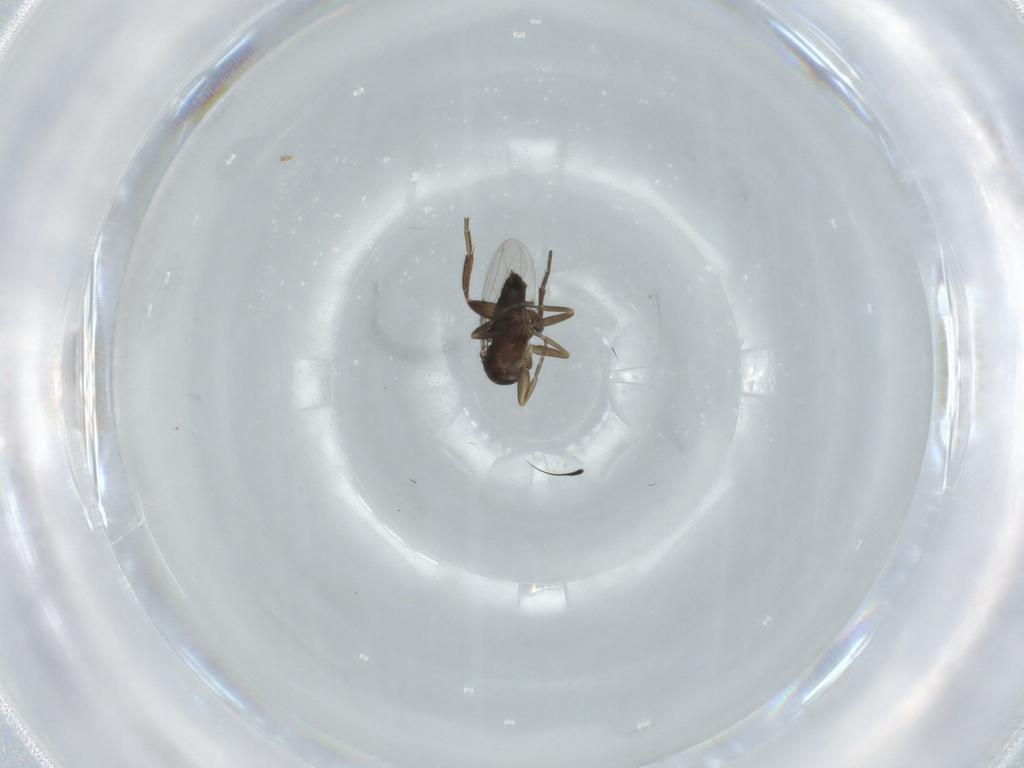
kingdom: Animalia
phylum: Arthropoda
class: Insecta
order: Diptera
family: Phoridae
